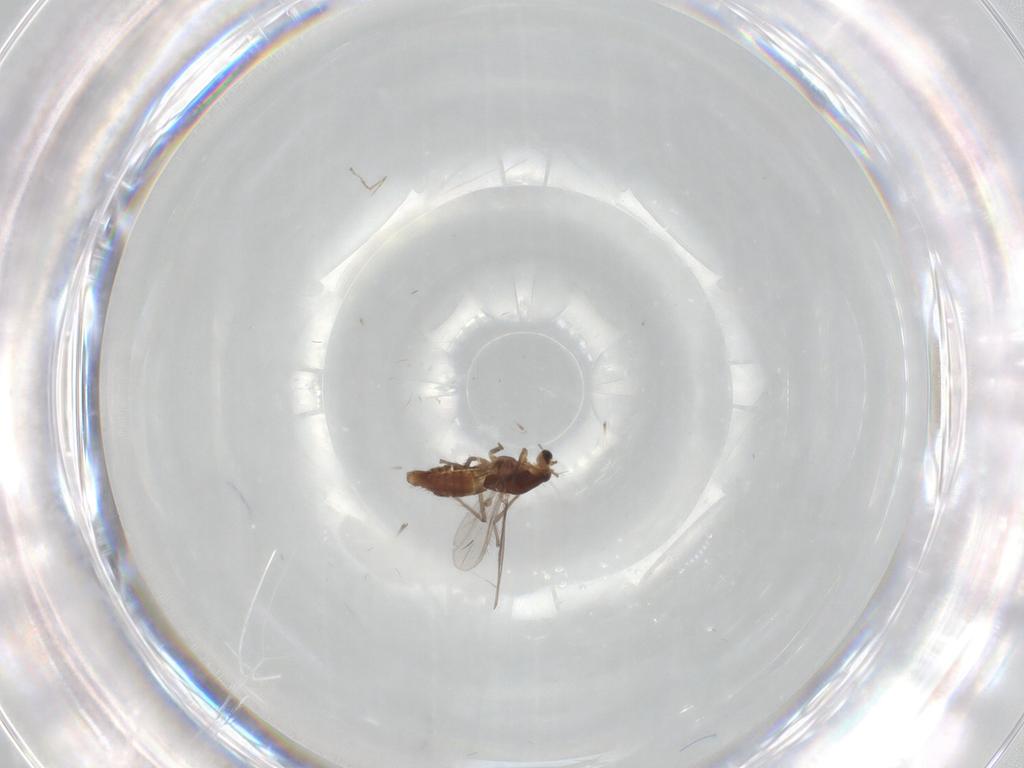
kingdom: Animalia
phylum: Arthropoda
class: Insecta
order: Diptera
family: Chironomidae
